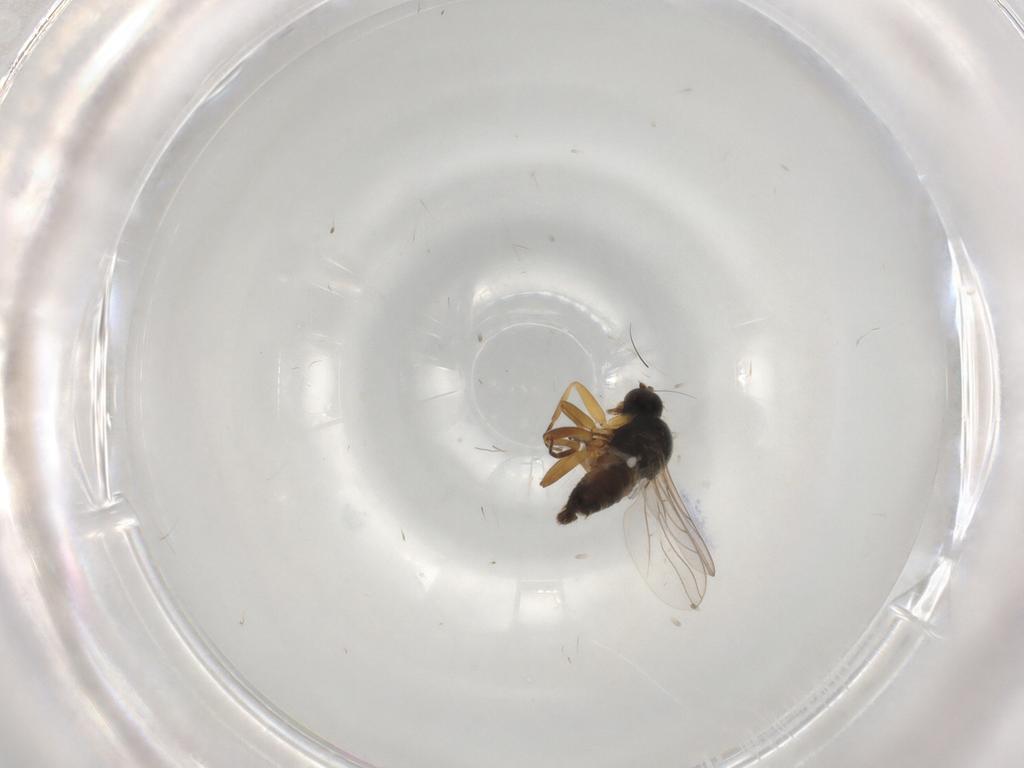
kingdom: Animalia
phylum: Arthropoda
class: Insecta
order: Diptera
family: Hybotidae
